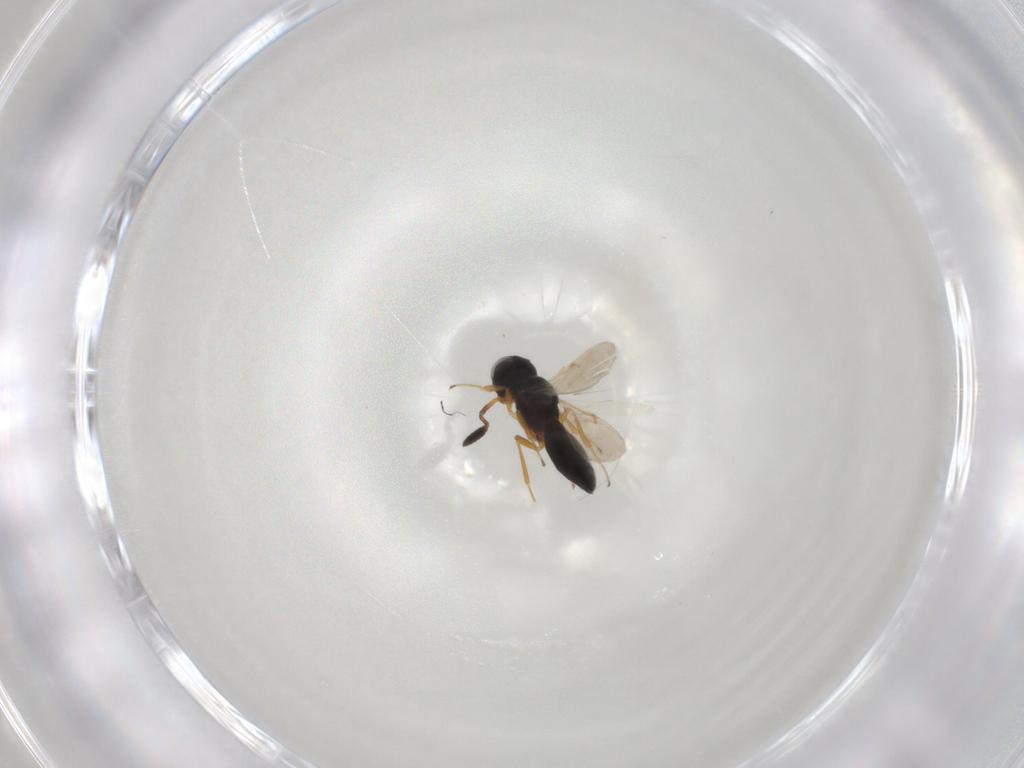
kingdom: Animalia
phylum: Arthropoda
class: Insecta
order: Hymenoptera
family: Scelionidae
